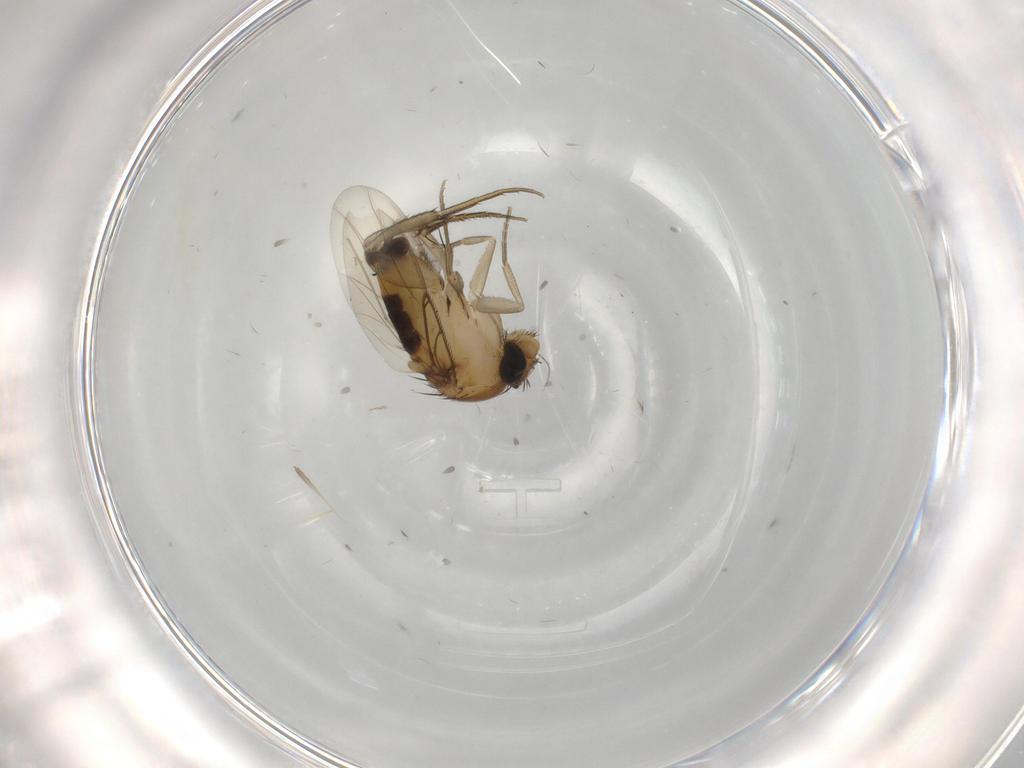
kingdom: Animalia
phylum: Arthropoda
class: Insecta
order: Diptera
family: Phoridae
